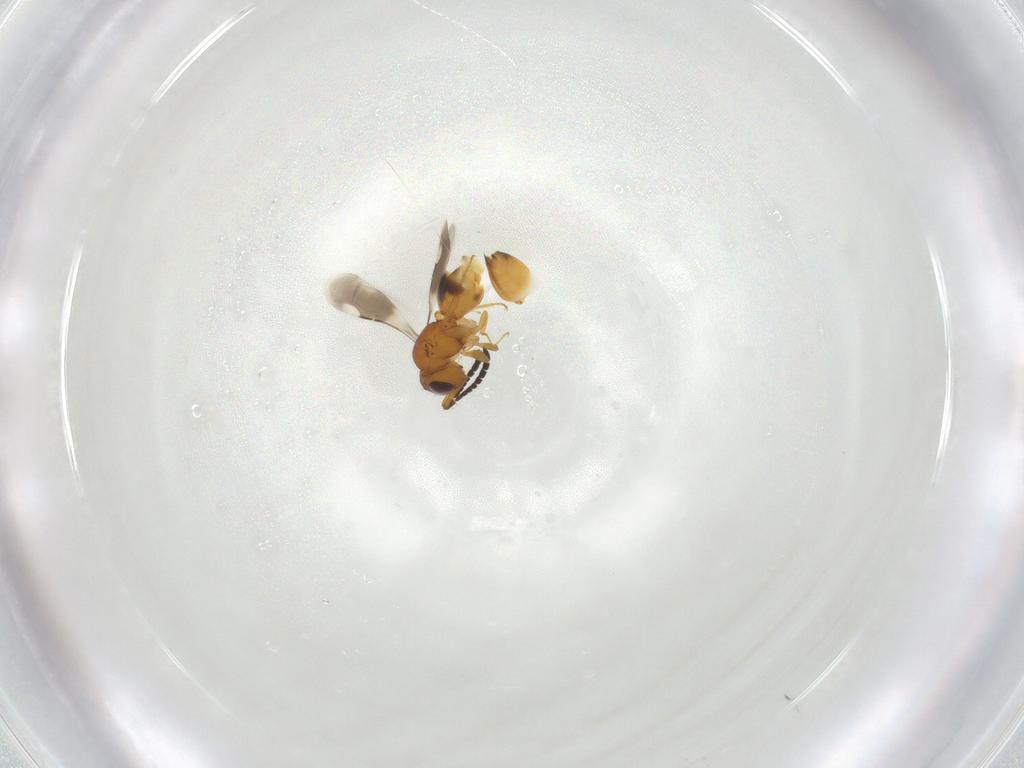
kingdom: Animalia
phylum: Arthropoda
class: Insecta
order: Hymenoptera
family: Ceraphronidae
